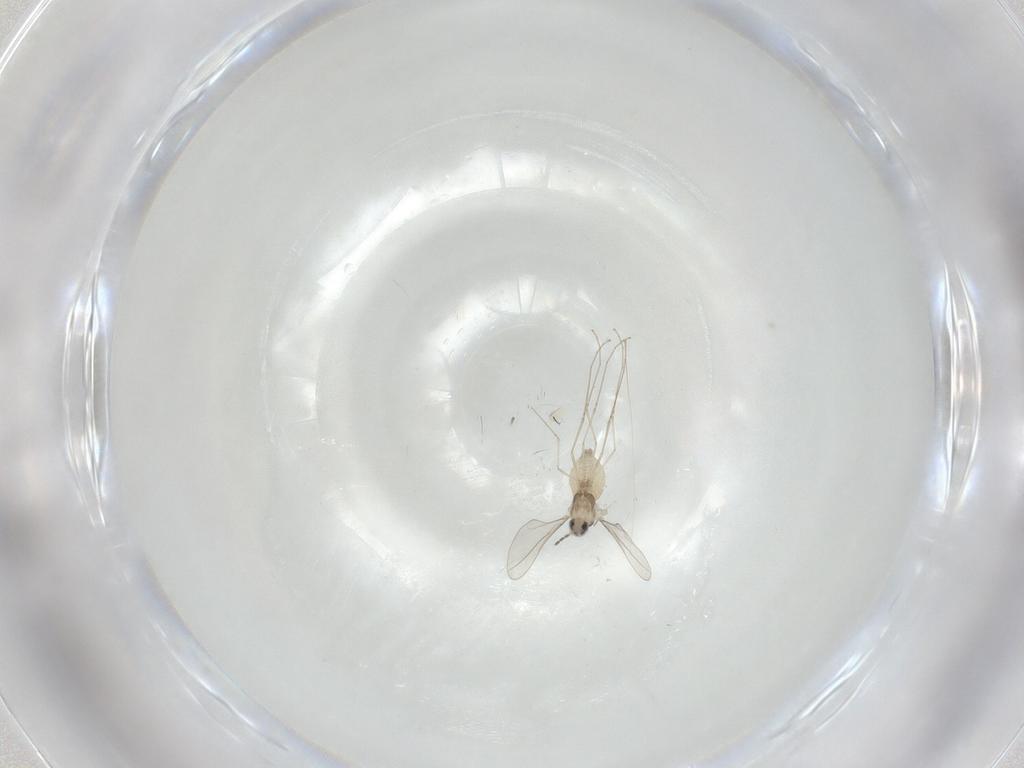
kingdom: Animalia
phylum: Arthropoda
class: Insecta
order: Diptera
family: Cecidomyiidae
